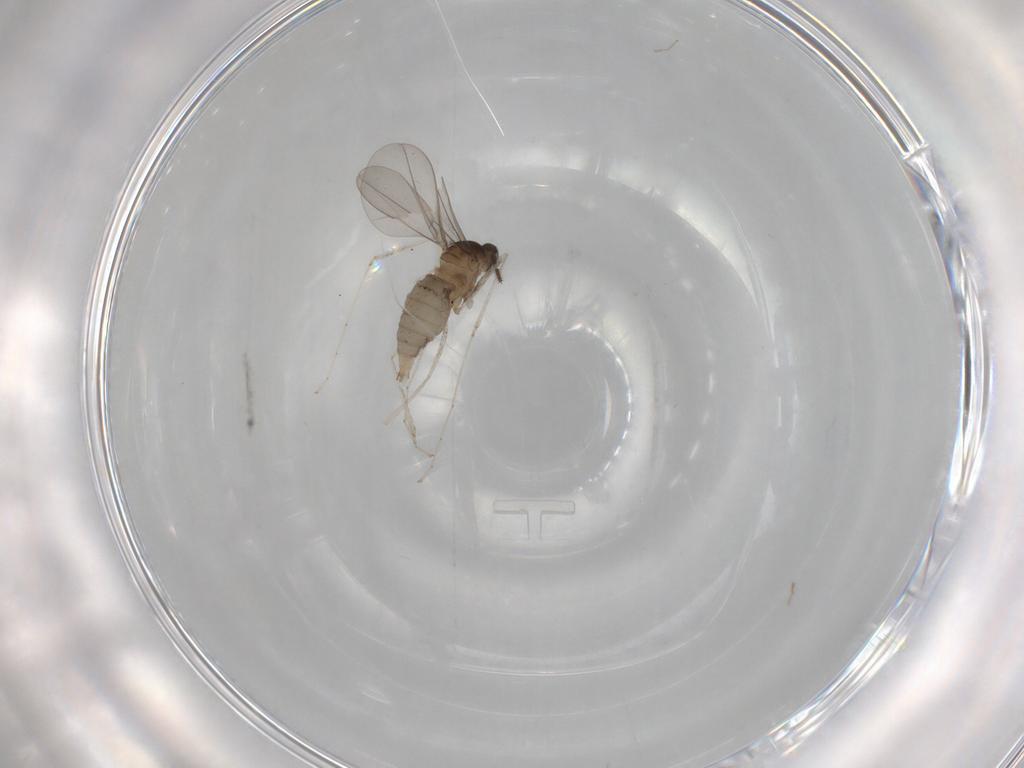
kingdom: Animalia
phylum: Arthropoda
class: Insecta
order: Diptera
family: Cecidomyiidae
